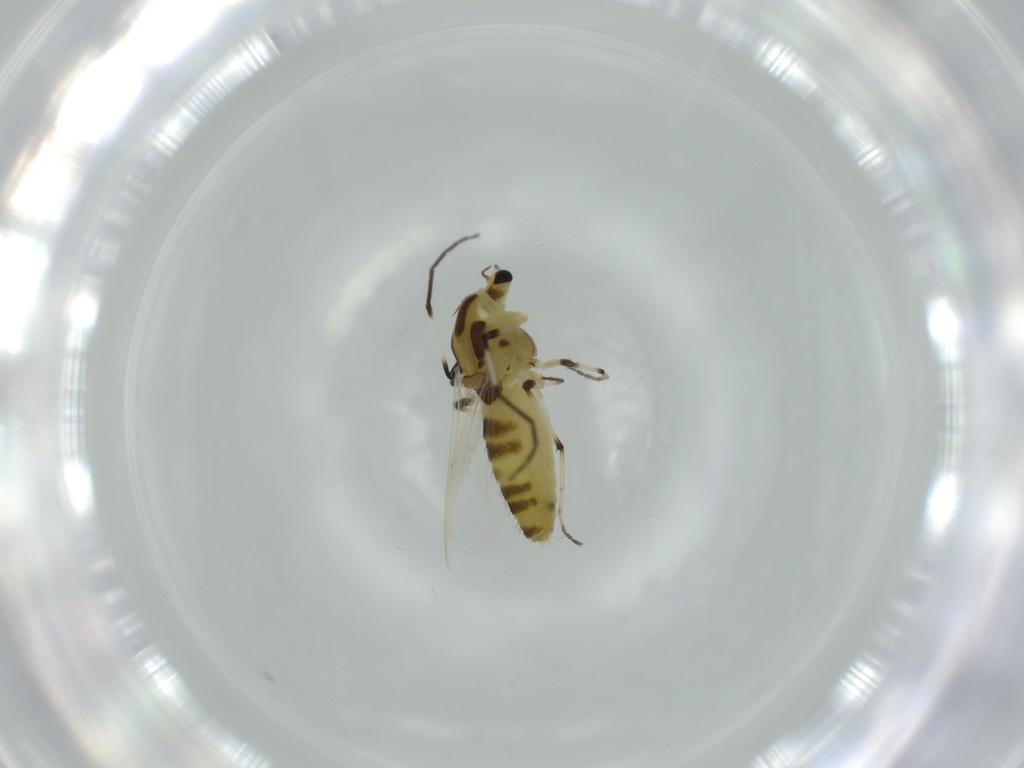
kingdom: Animalia
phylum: Arthropoda
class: Insecta
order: Diptera
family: Chironomidae
